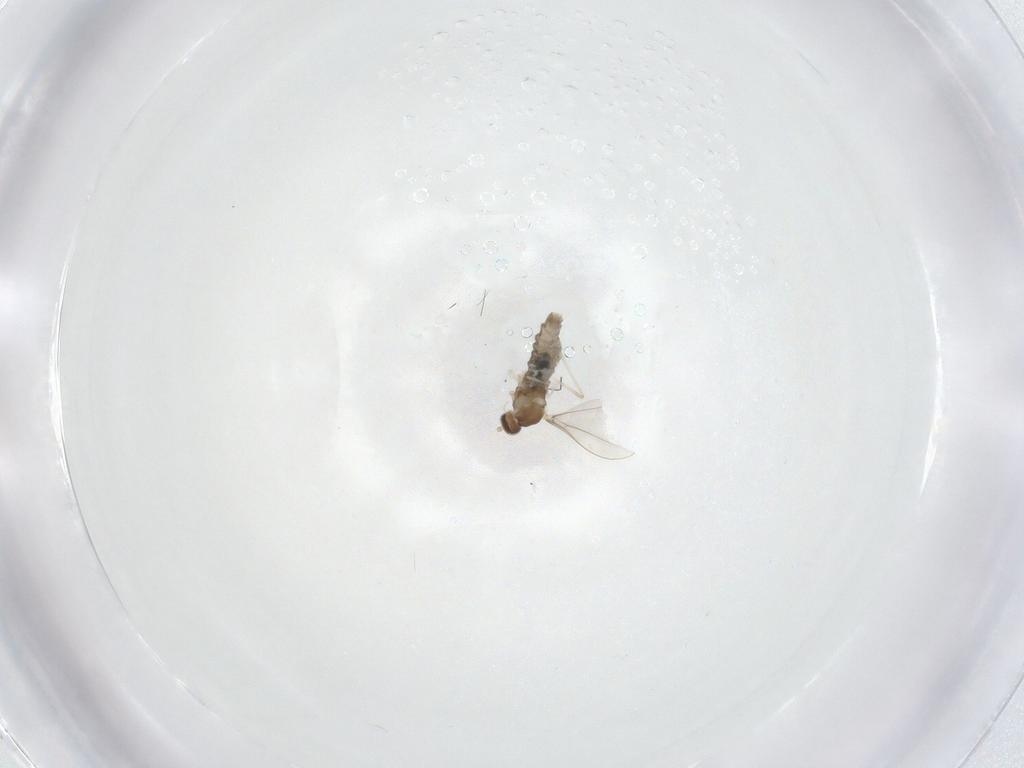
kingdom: Animalia
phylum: Arthropoda
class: Insecta
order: Diptera
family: Cecidomyiidae
